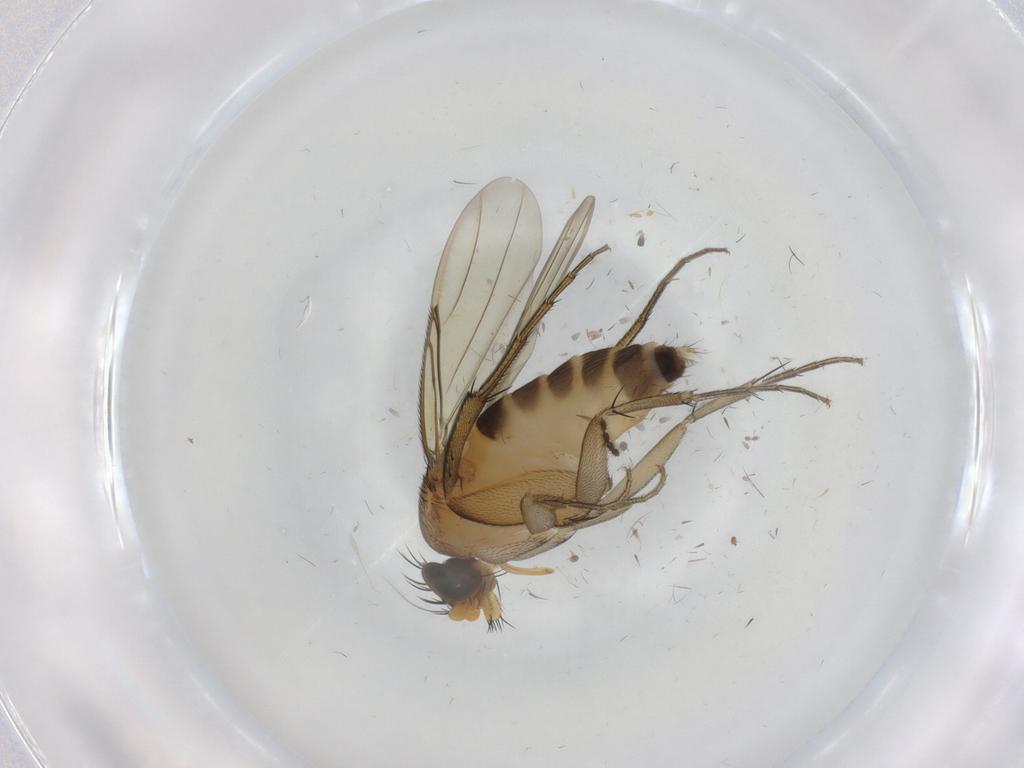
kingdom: Animalia
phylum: Arthropoda
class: Insecta
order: Diptera
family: Phoridae
